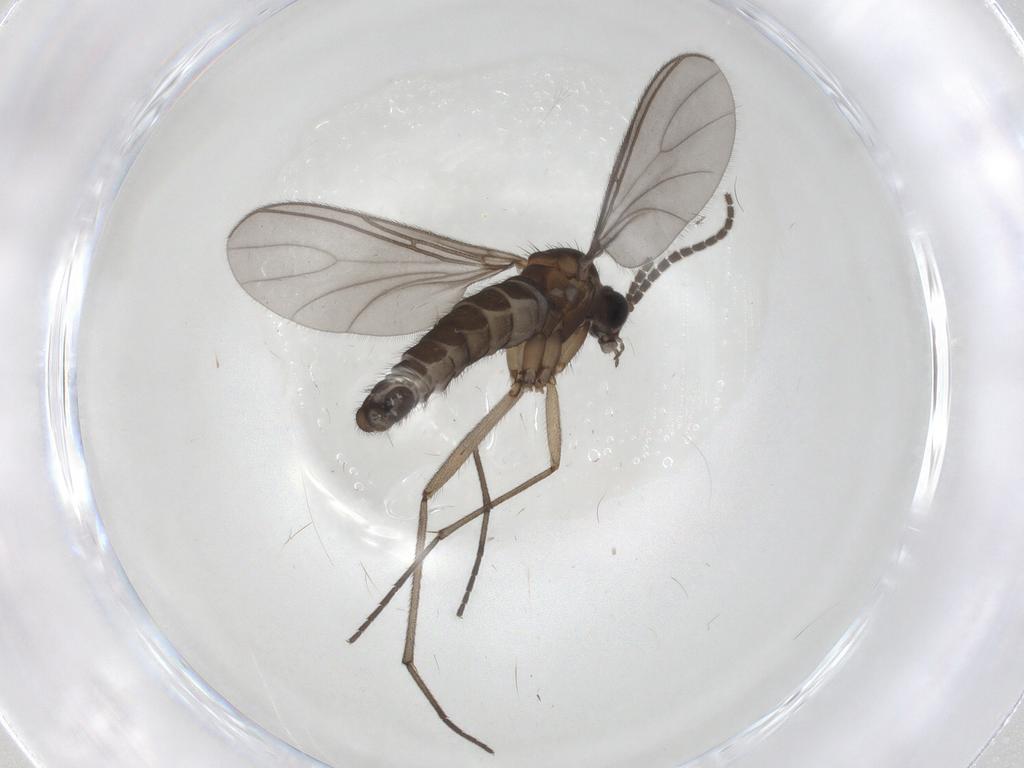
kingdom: Animalia
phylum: Arthropoda
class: Insecta
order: Diptera
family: Sciaridae
